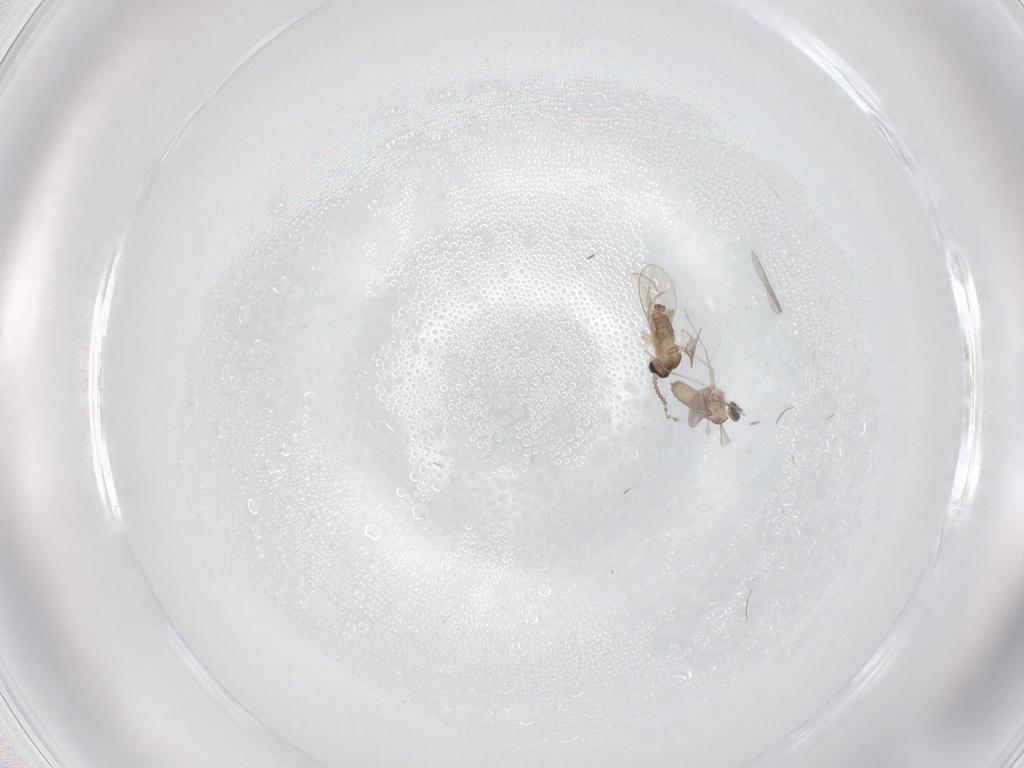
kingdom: Animalia
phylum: Arthropoda
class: Insecta
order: Diptera
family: Cecidomyiidae
